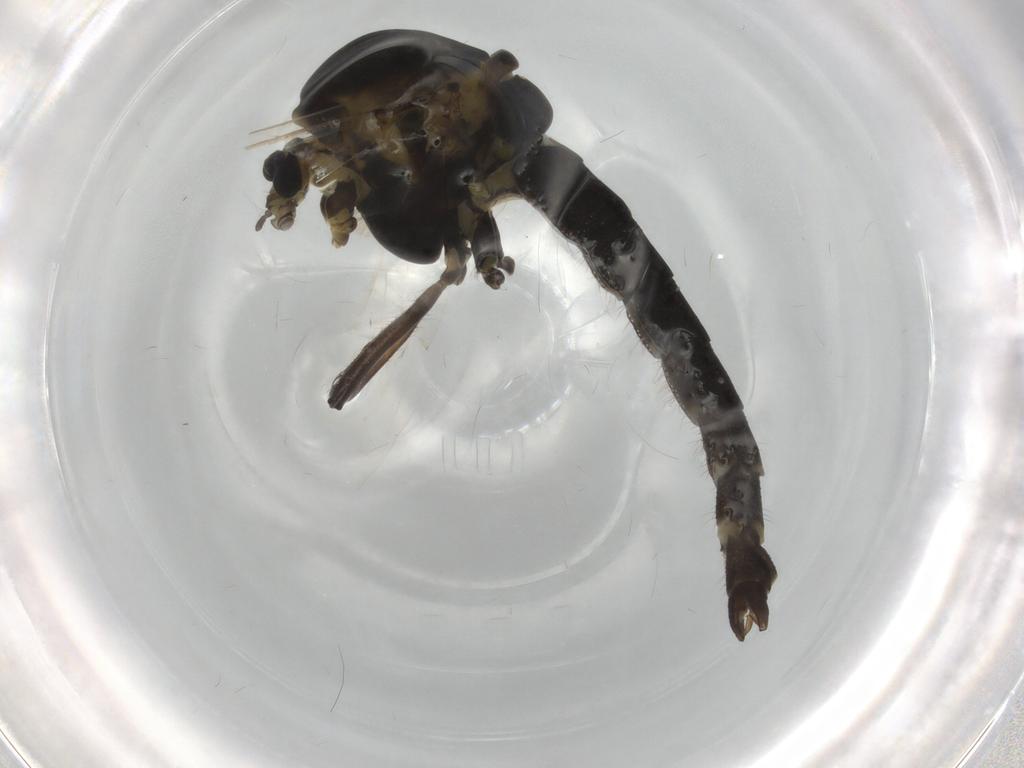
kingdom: Animalia
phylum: Arthropoda
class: Insecta
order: Diptera
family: Phoridae
